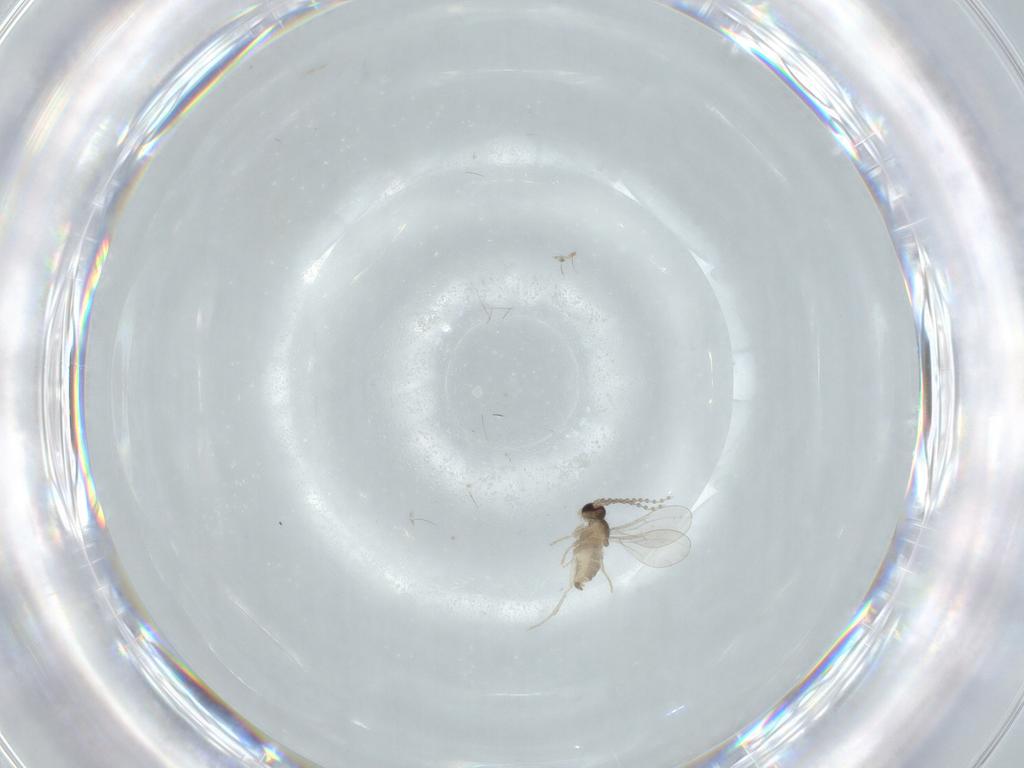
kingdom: Animalia
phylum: Arthropoda
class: Insecta
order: Diptera
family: Cecidomyiidae
